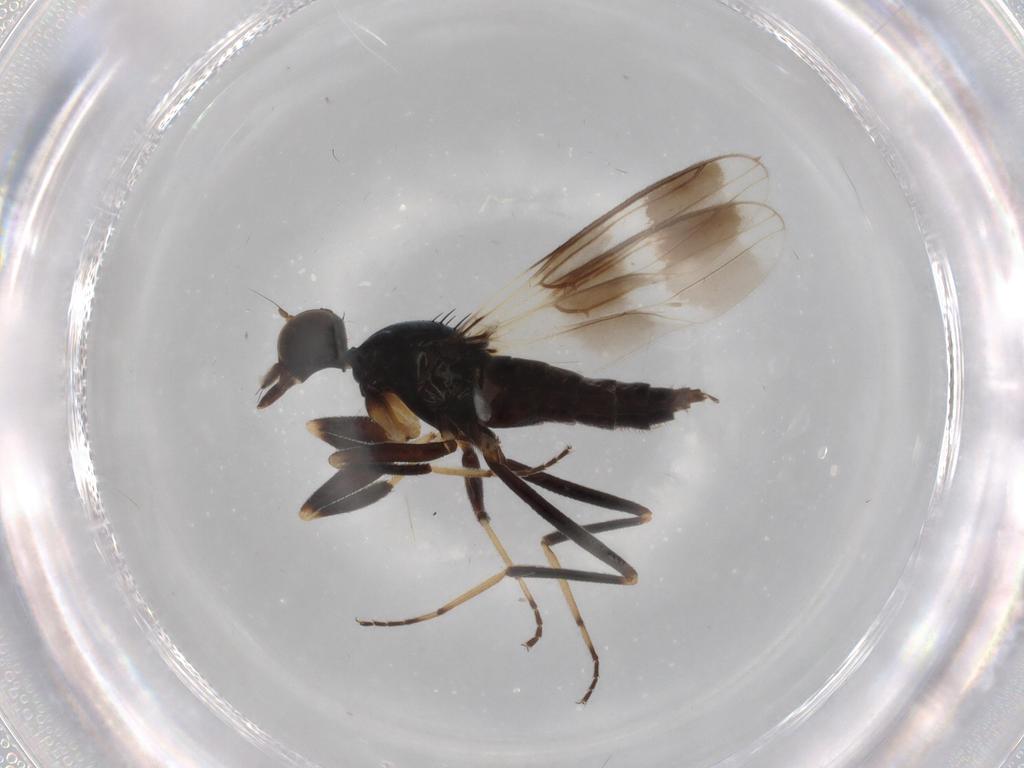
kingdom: Animalia
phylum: Arthropoda
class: Insecta
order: Diptera
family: Hybotidae
